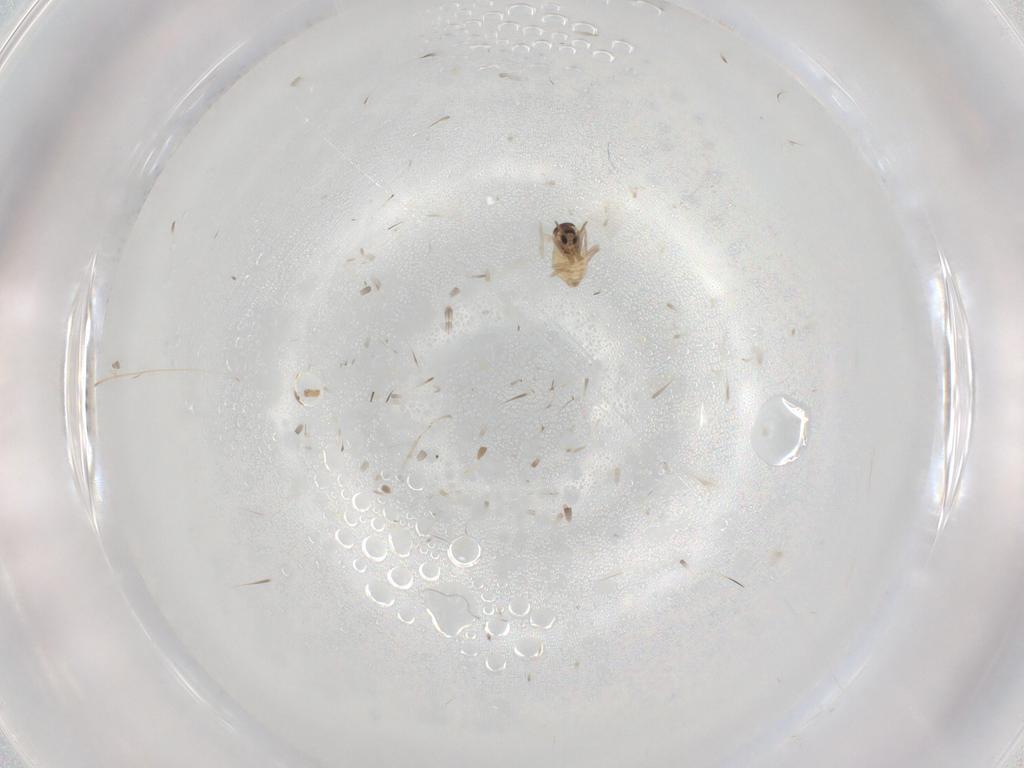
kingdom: Animalia
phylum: Arthropoda
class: Insecta
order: Diptera
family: Cecidomyiidae
